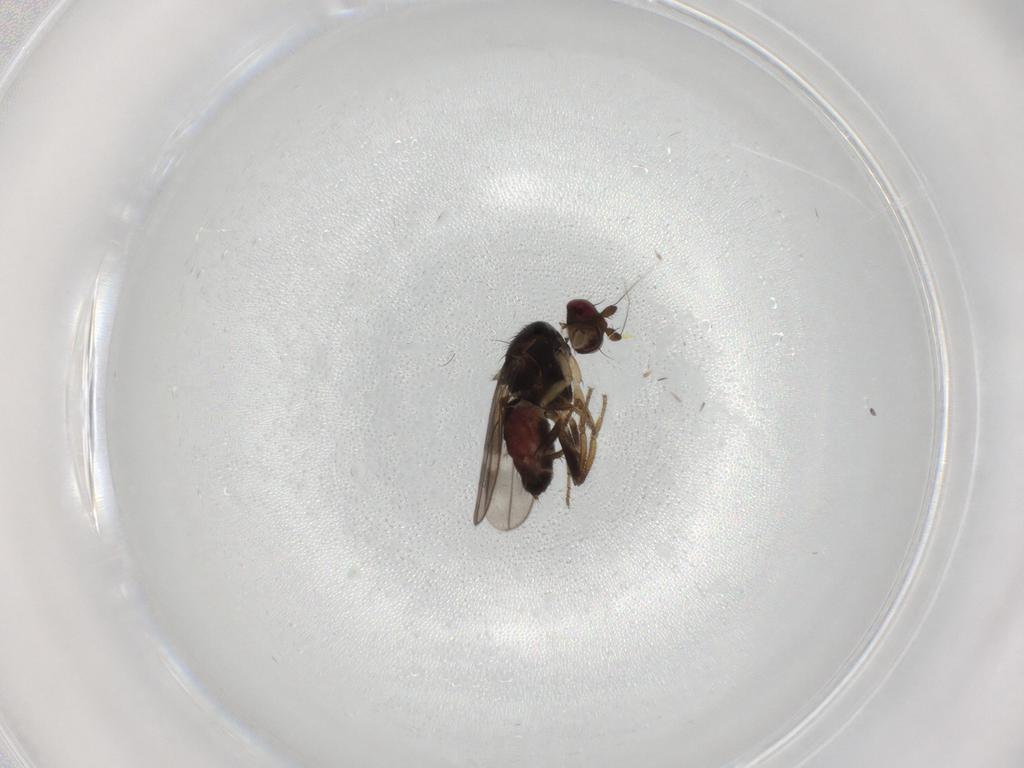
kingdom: Animalia
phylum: Arthropoda
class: Insecta
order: Diptera
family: Sphaeroceridae
